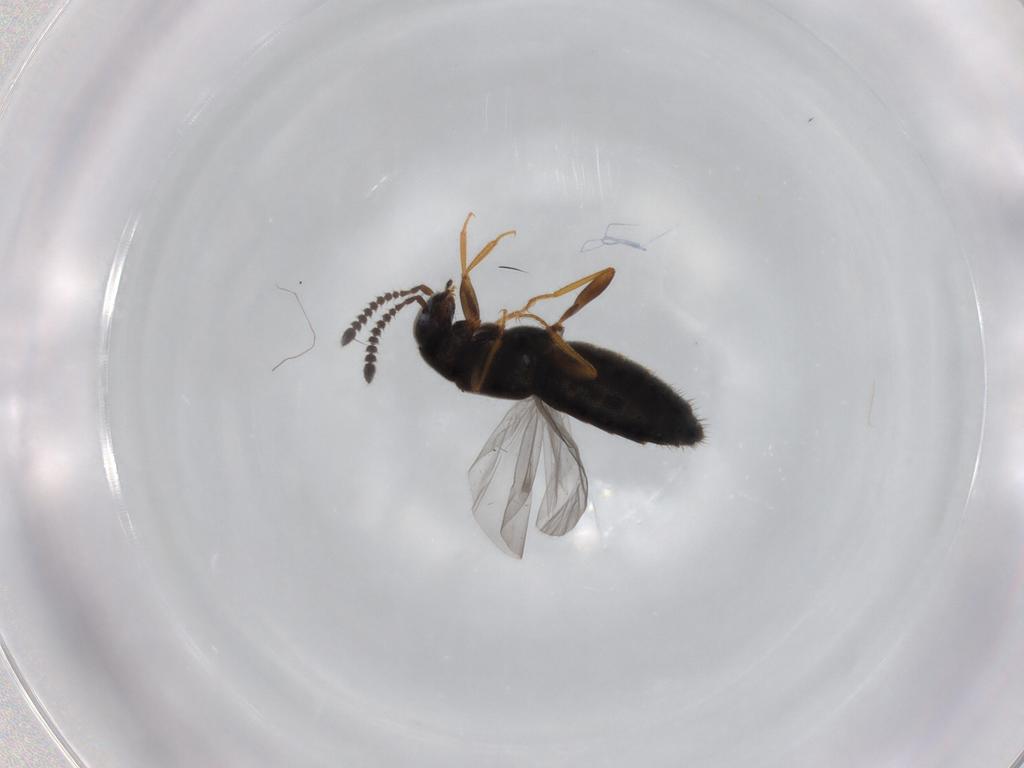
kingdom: Animalia
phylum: Arthropoda
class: Insecta
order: Coleoptera
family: Staphylinidae
